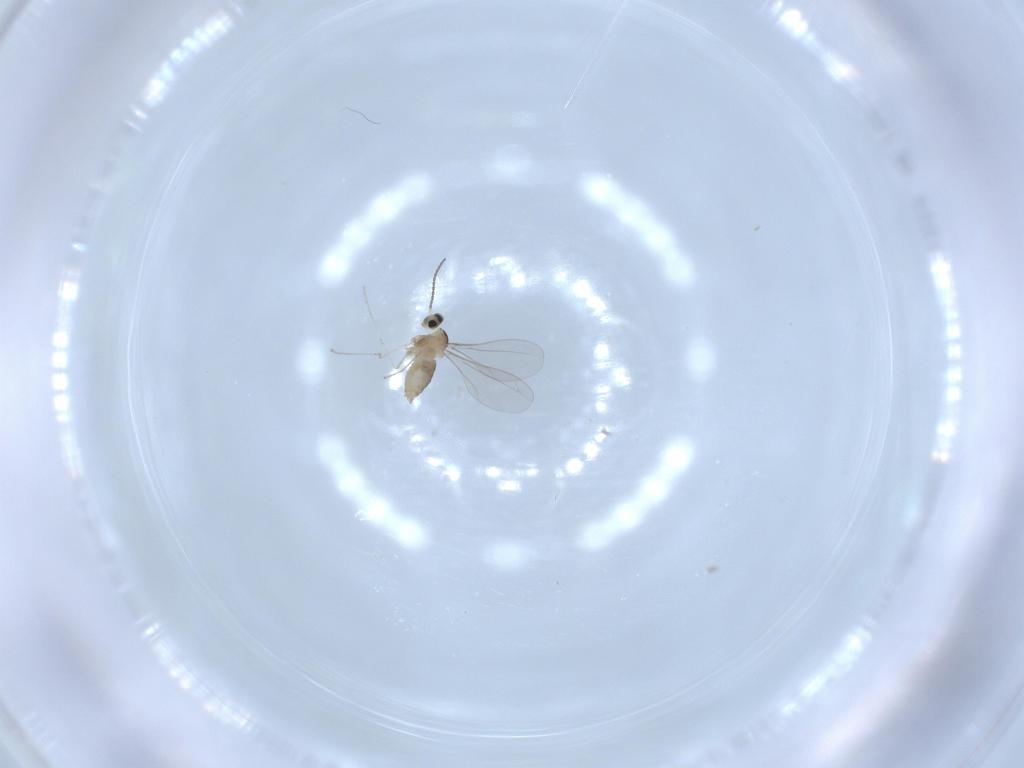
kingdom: Animalia
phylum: Arthropoda
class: Insecta
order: Diptera
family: Cecidomyiidae
